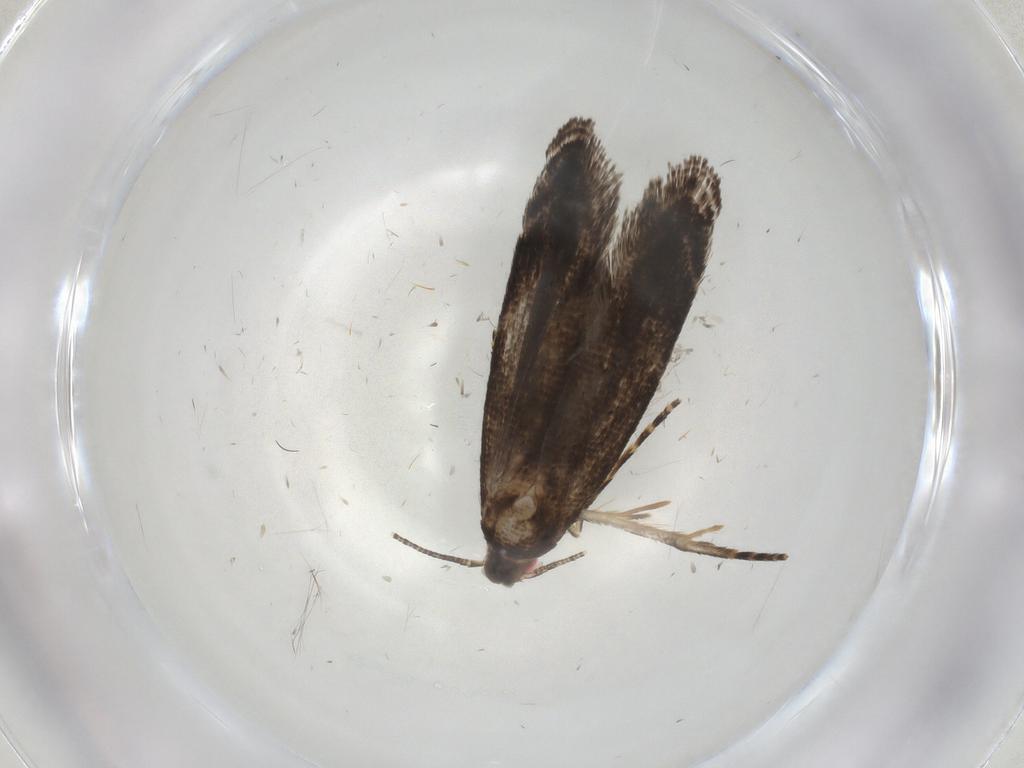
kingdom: Animalia
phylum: Arthropoda
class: Insecta
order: Lepidoptera
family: Gelechiidae
